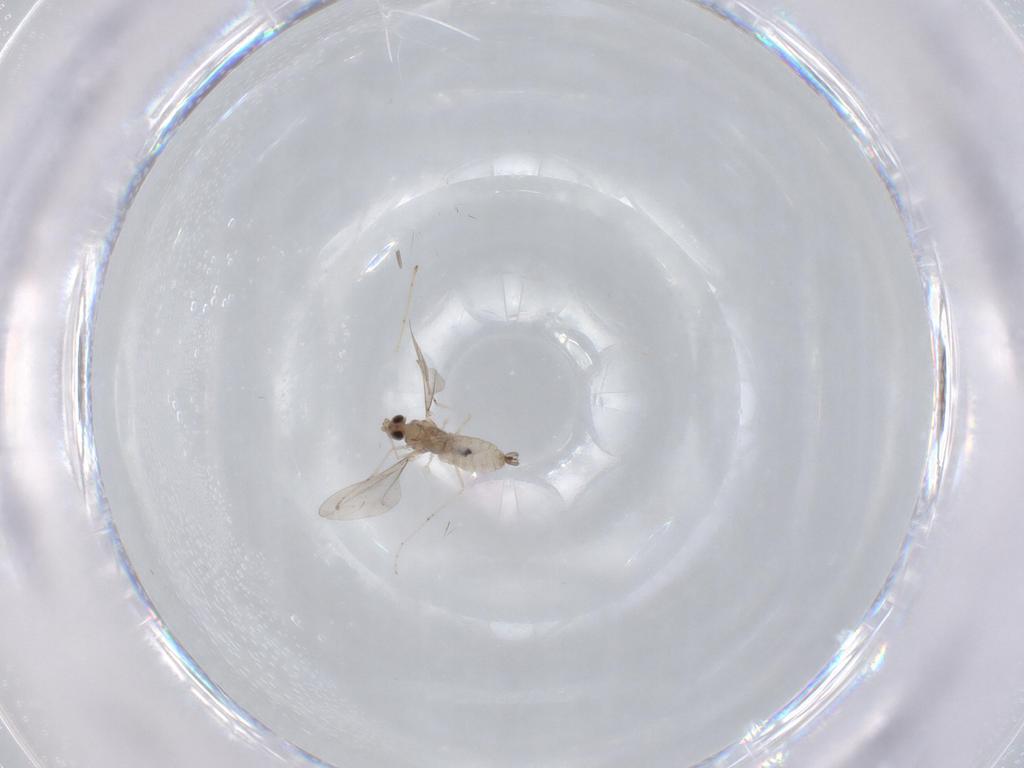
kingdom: Animalia
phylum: Arthropoda
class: Insecta
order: Diptera
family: Cecidomyiidae
